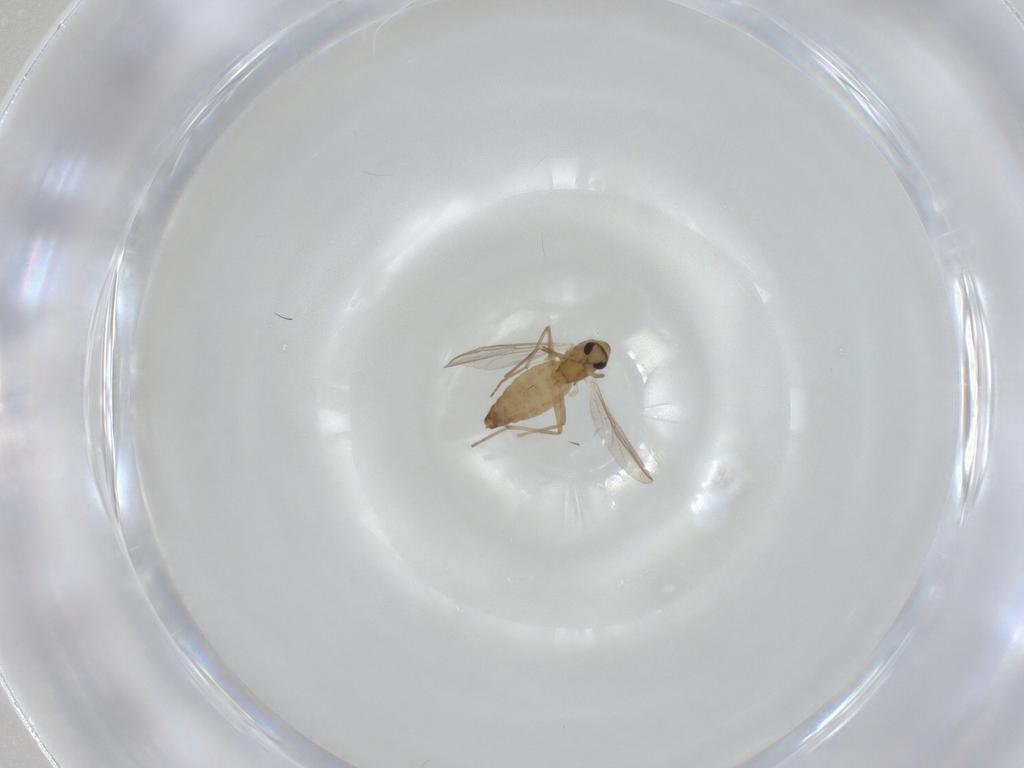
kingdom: Animalia
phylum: Arthropoda
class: Insecta
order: Diptera
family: Chironomidae
